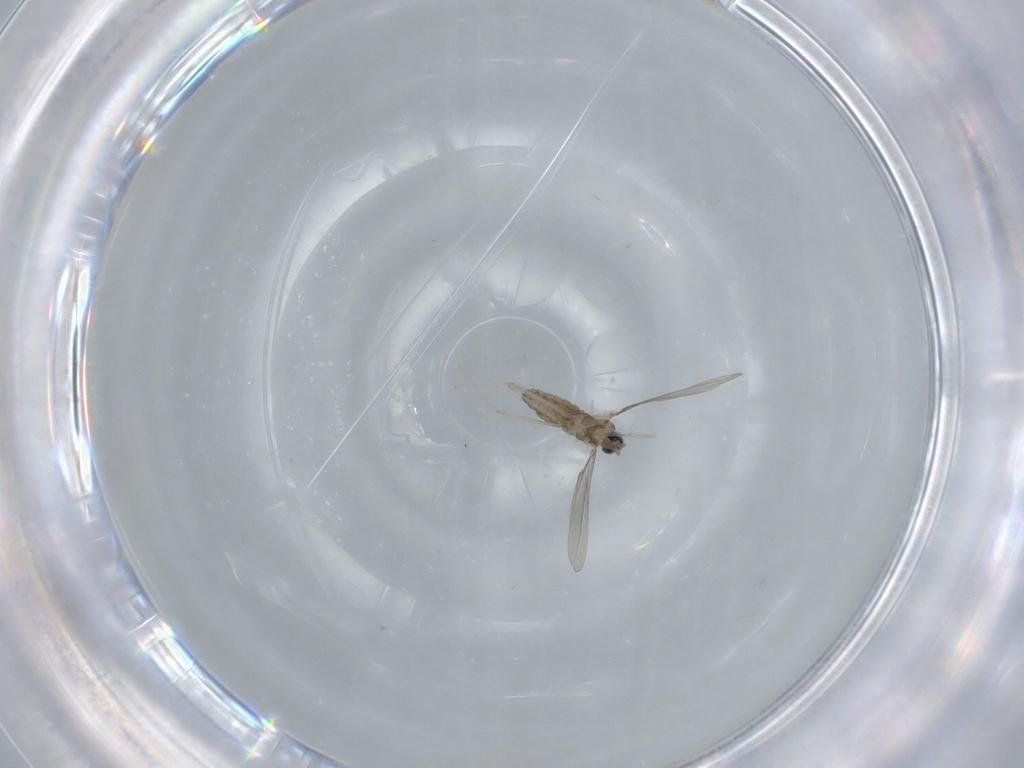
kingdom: Animalia
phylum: Arthropoda
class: Insecta
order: Diptera
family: Cecidomyiidae
